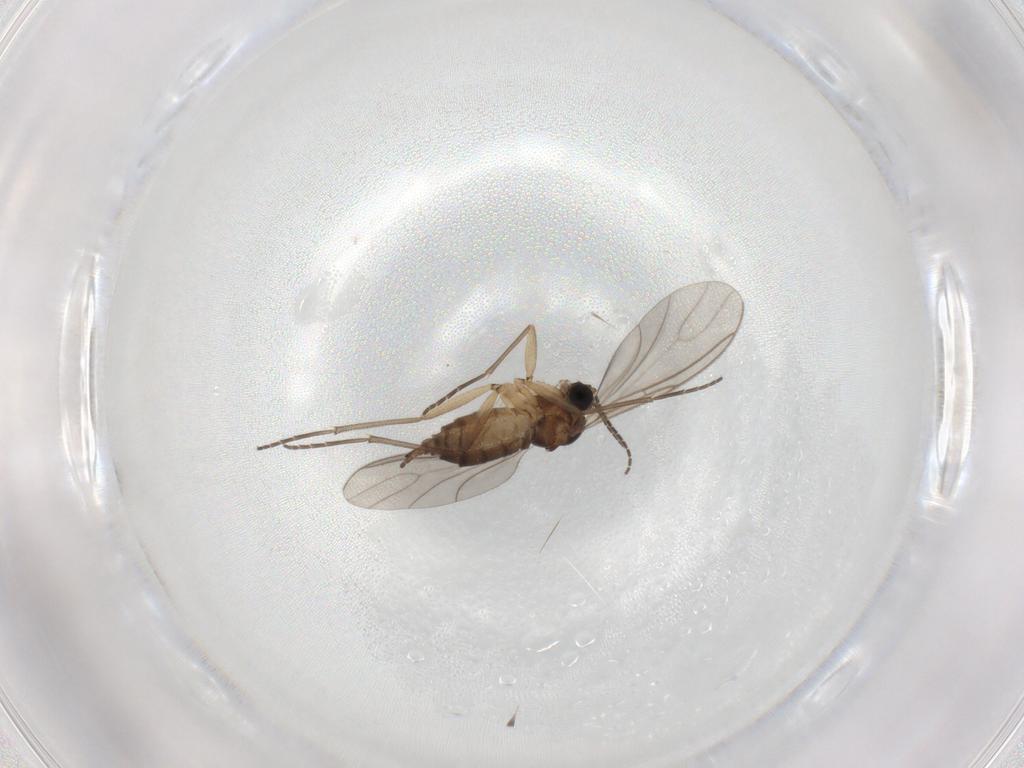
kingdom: Animalia
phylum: Arthropoda
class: Insecta
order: Diptera
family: Sciaridae
